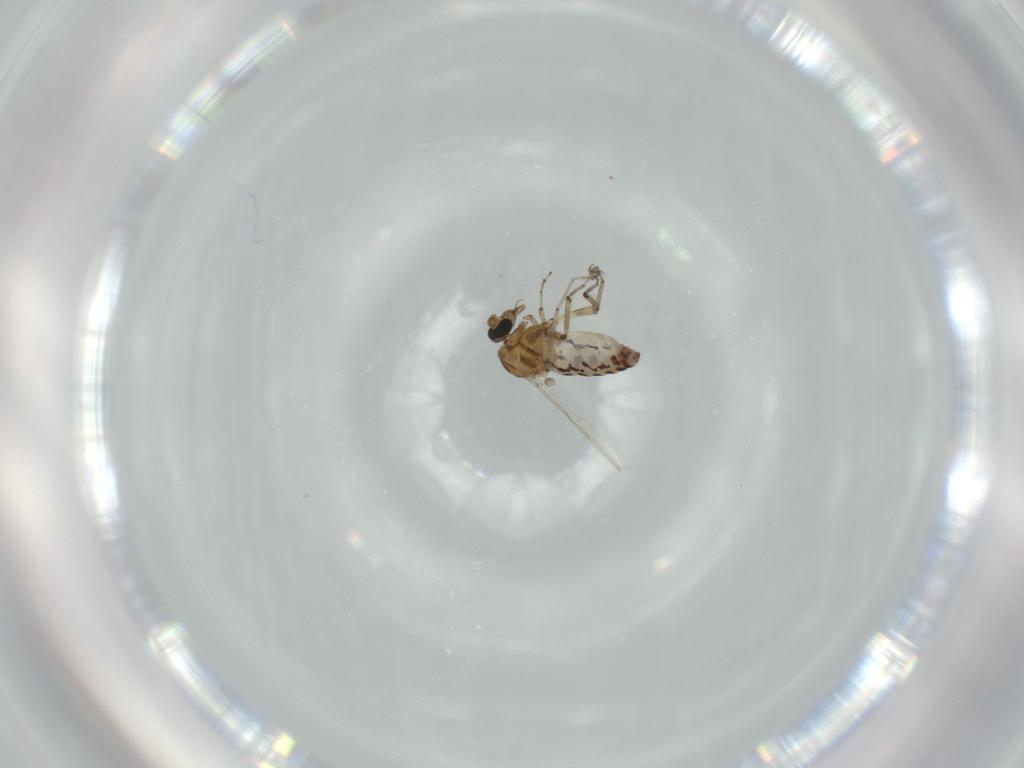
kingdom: Animalia
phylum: Arthropoda
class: Insecta
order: Diptera
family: Ceratopogonidae
